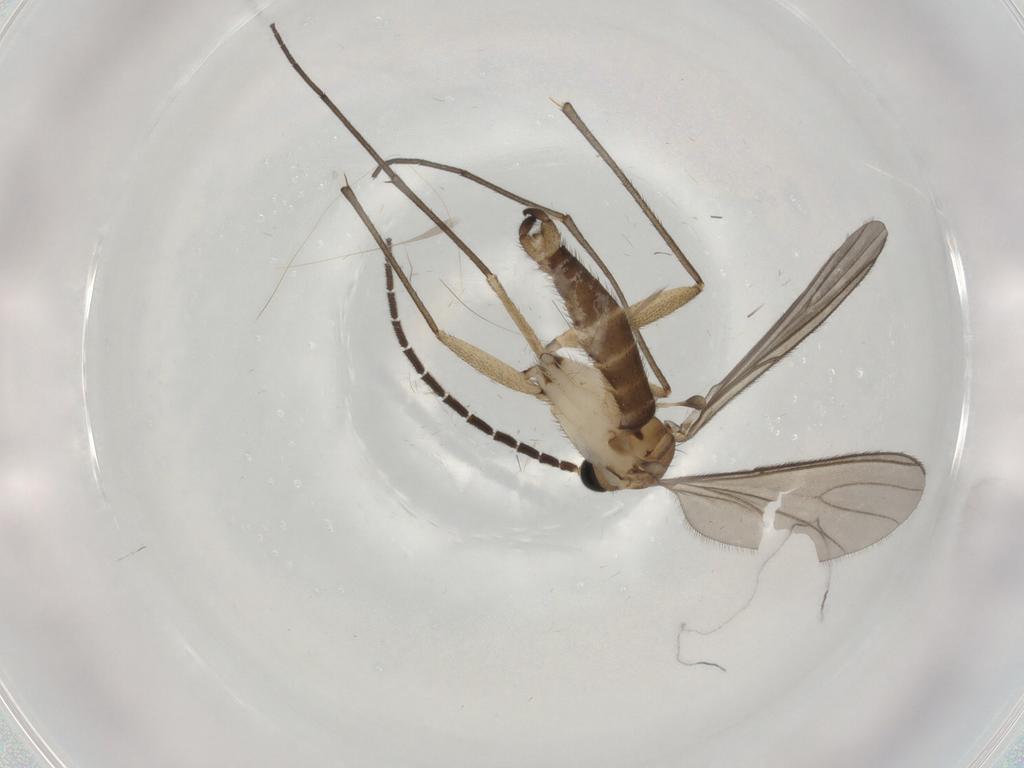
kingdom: Animalia
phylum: Arthropoda
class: Insecta
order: Diptera
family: Sciaridae
